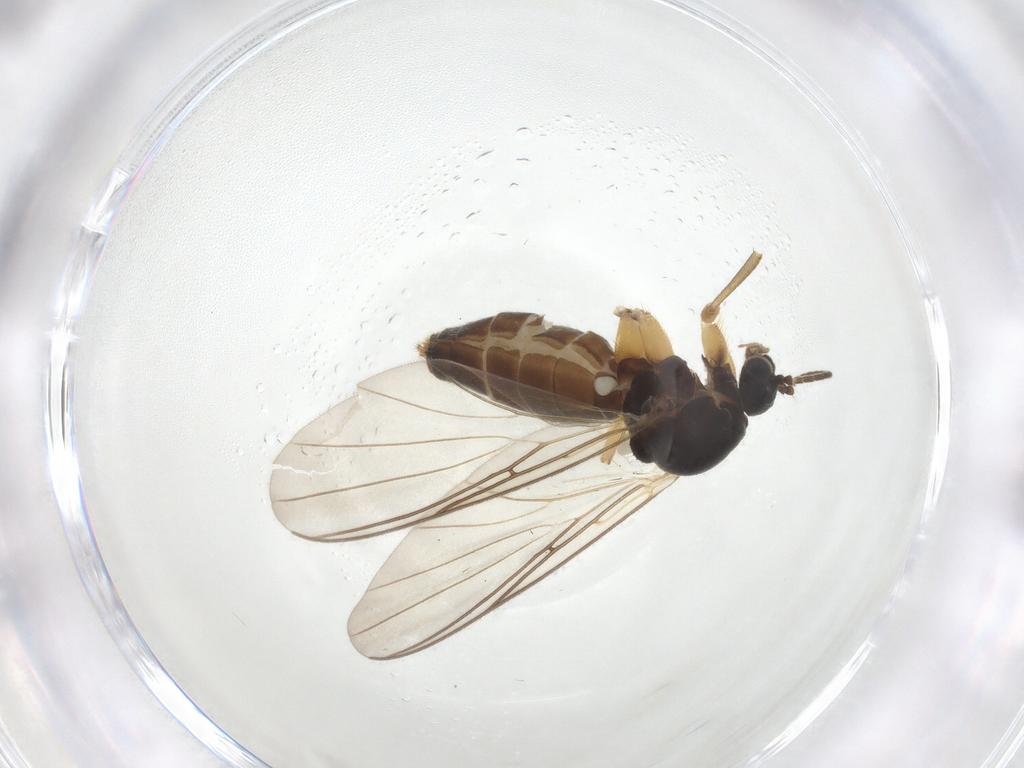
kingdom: Animalia
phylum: Arthropoda
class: Insecta
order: Diptera
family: Mycetophilidae
